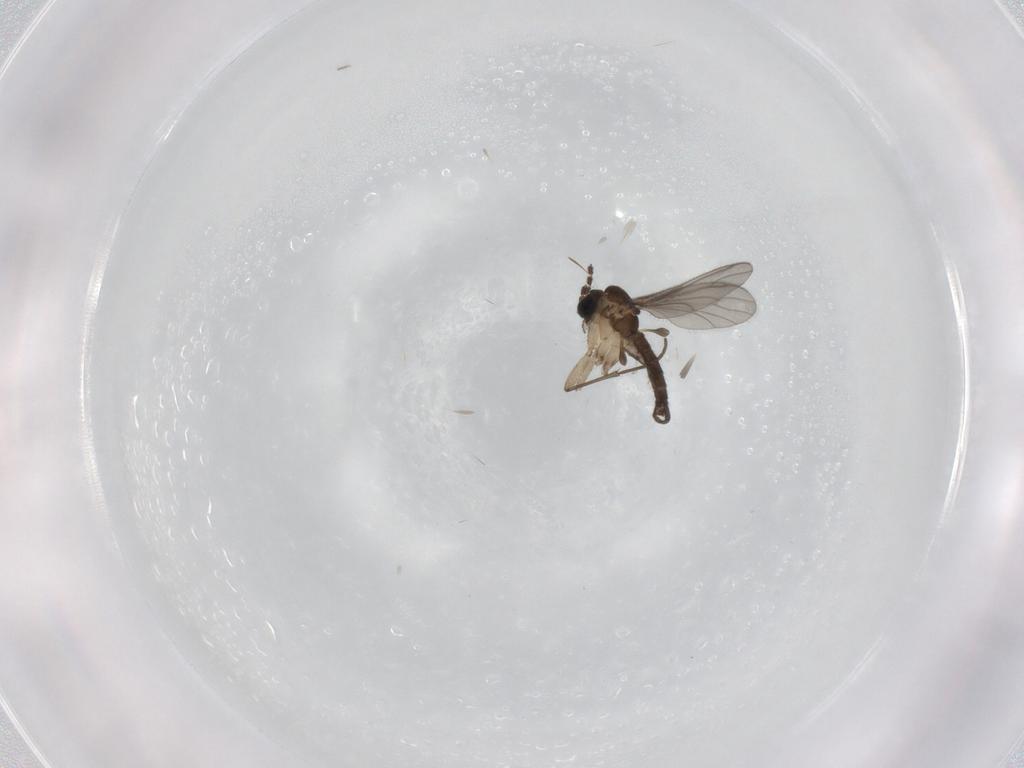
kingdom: Animalia
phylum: Arthropoda
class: Insecta
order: Diptera
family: Sciaridae
